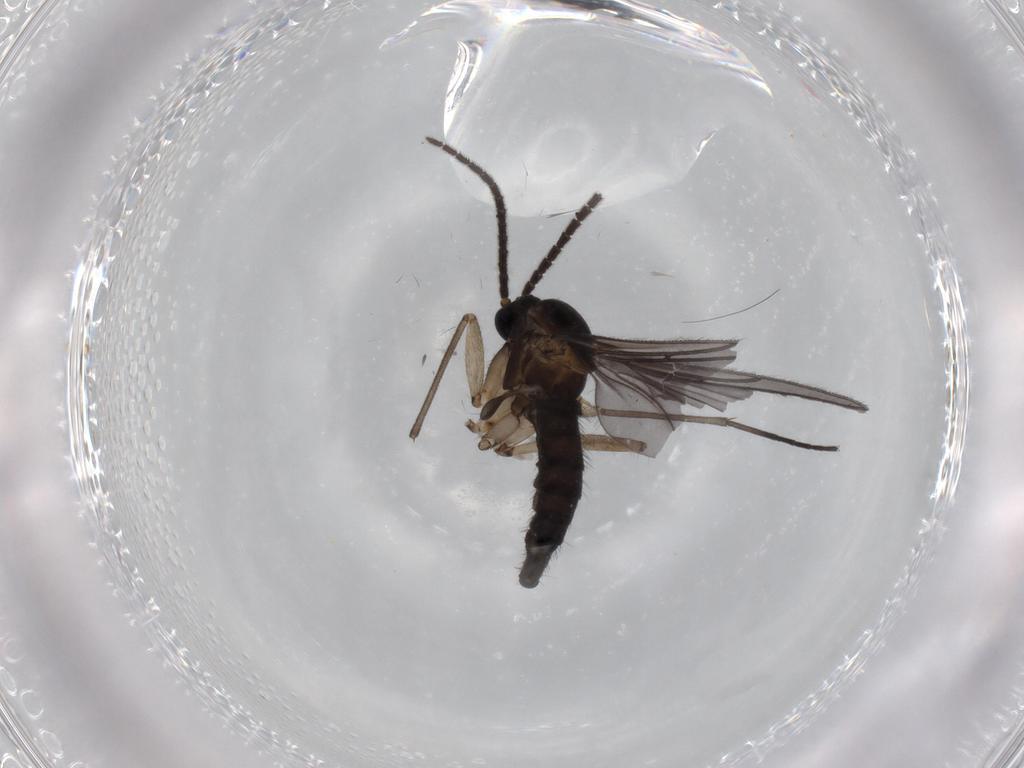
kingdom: Animalia
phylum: Arthropoda
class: Insecta
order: Diptera
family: Sciaridae
